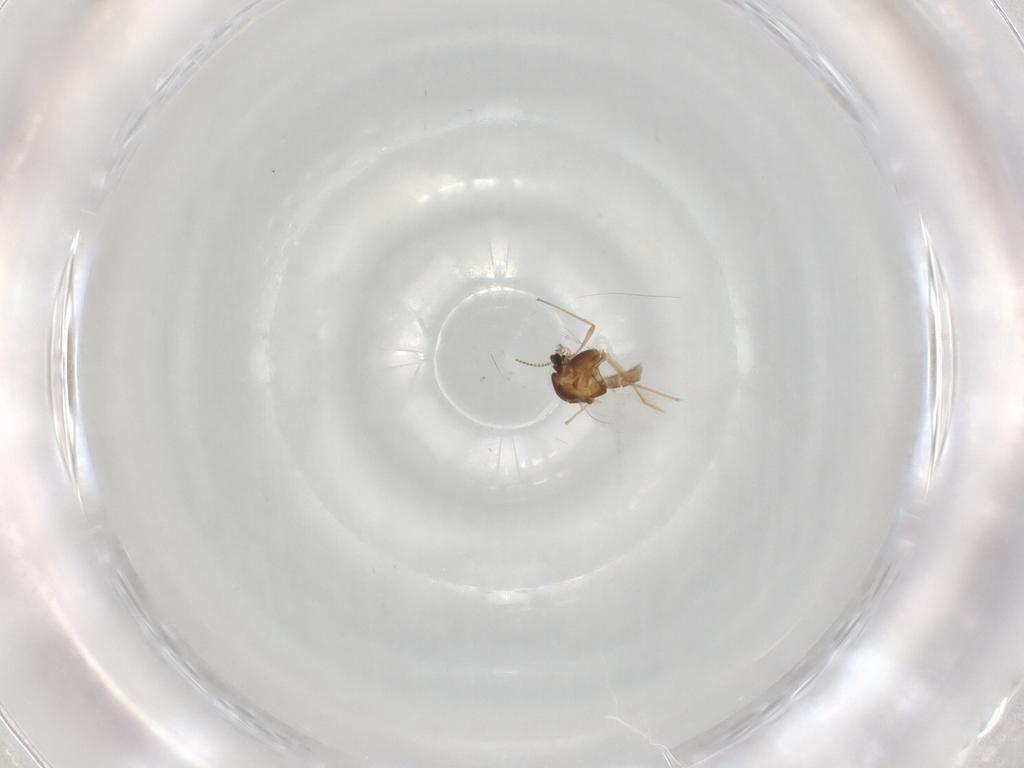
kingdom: Animalia
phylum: Arthropoda
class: Insecta
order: Diptera
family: Chironomidae
